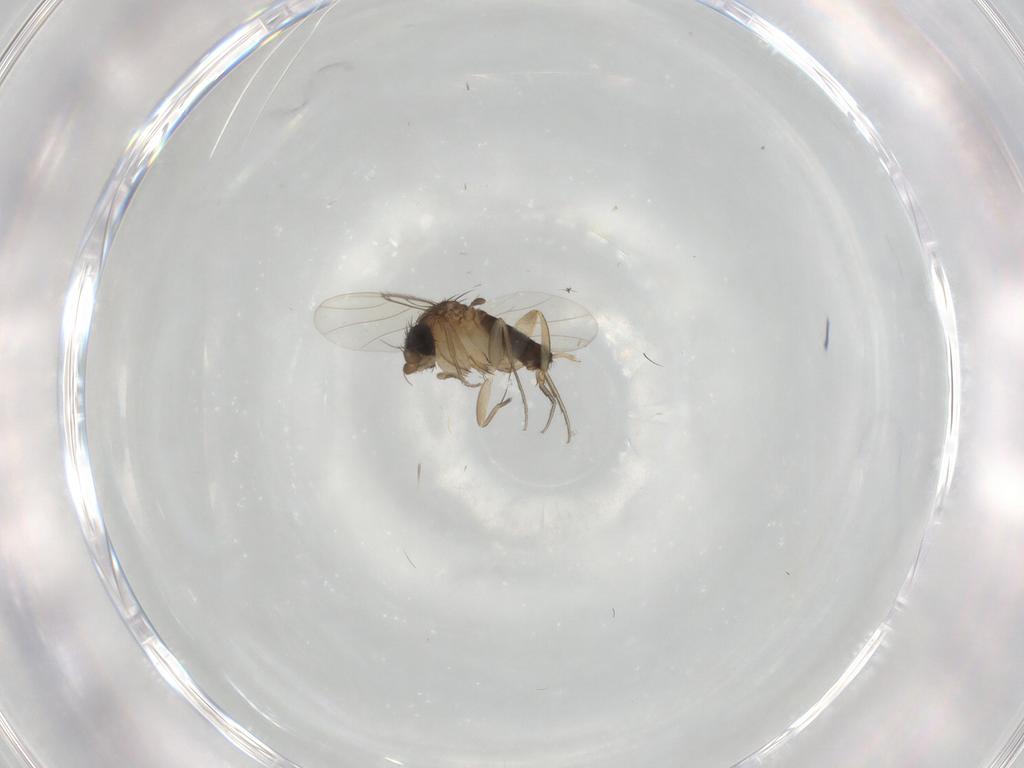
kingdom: Animalia
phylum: Arthropoda
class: Insecta
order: Diptera
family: Phoridae
